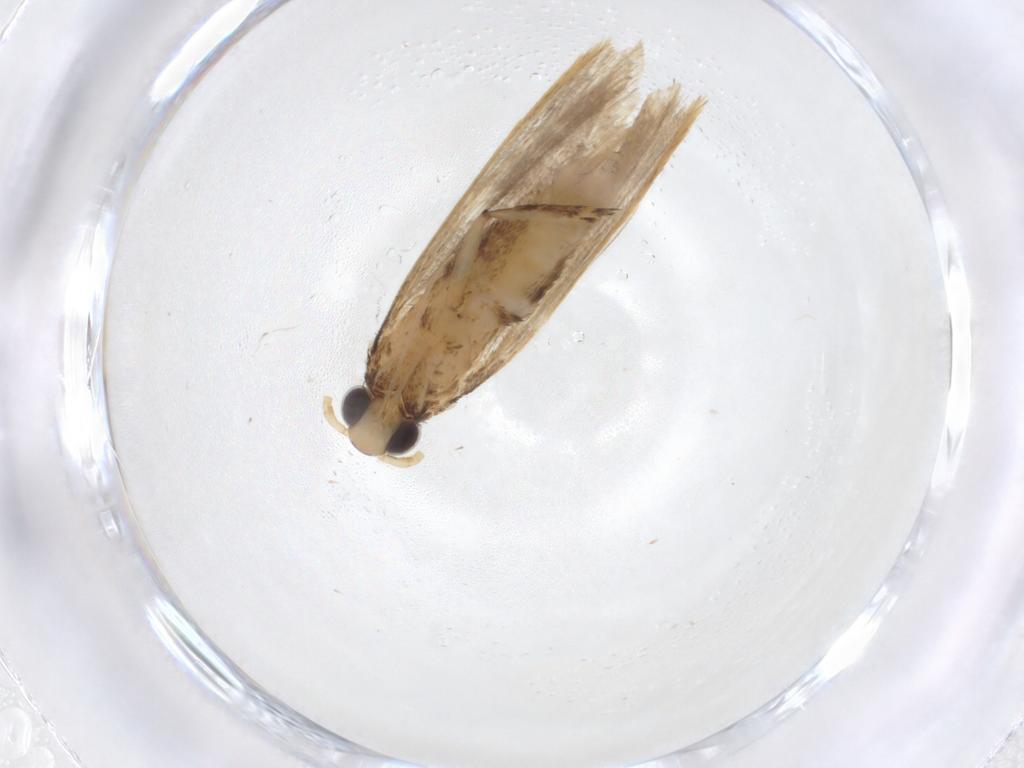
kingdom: Animalia
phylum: Arthropoda
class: Insecta
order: Lepidoptera
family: Lecithoceridae
